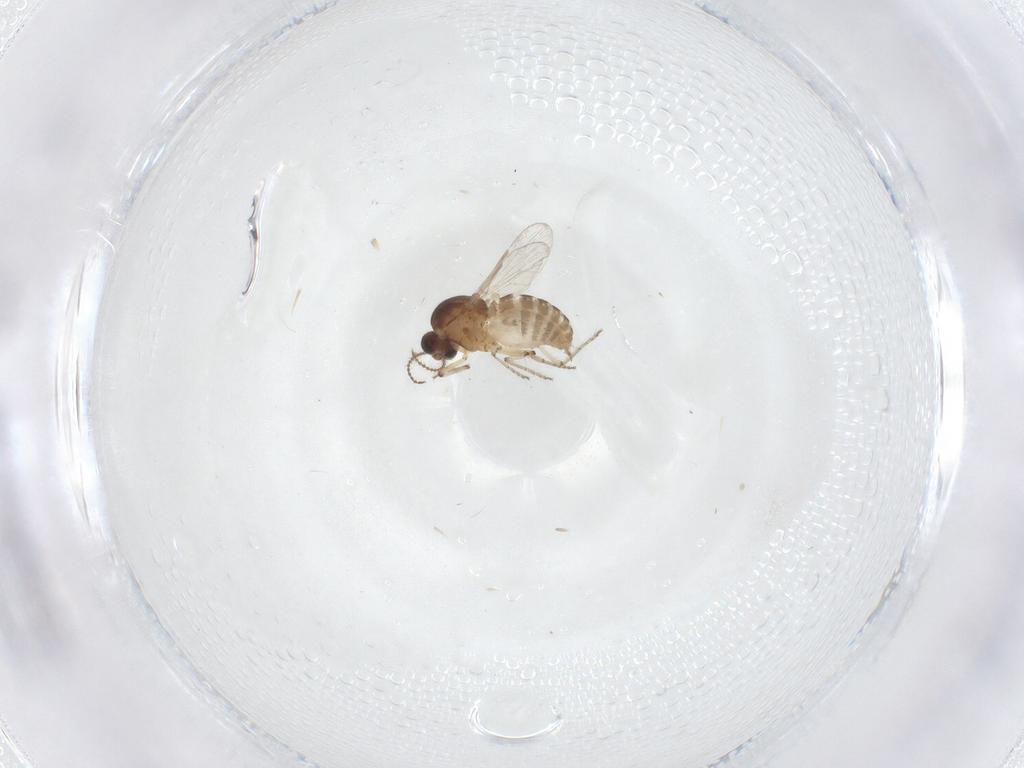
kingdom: Animalia
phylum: Arthropoda
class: Insecta
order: Diptera
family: Ceratopogonidae
